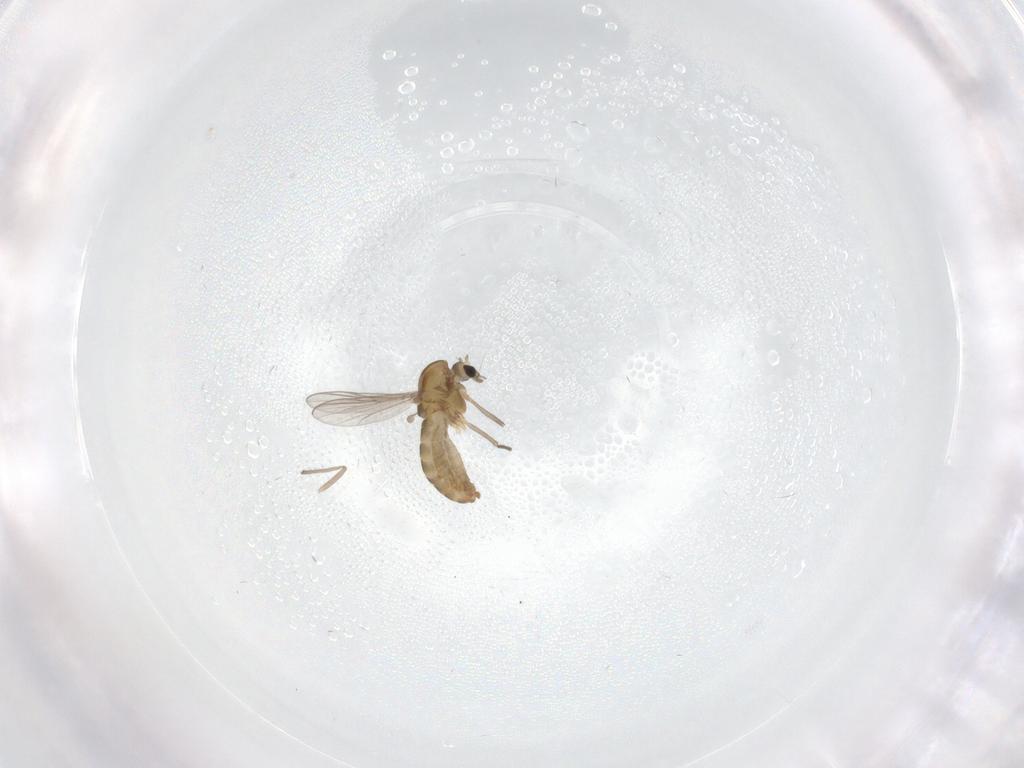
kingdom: Animalia
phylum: Arthropoda
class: Insecta
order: Diptera
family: Chironomidae
